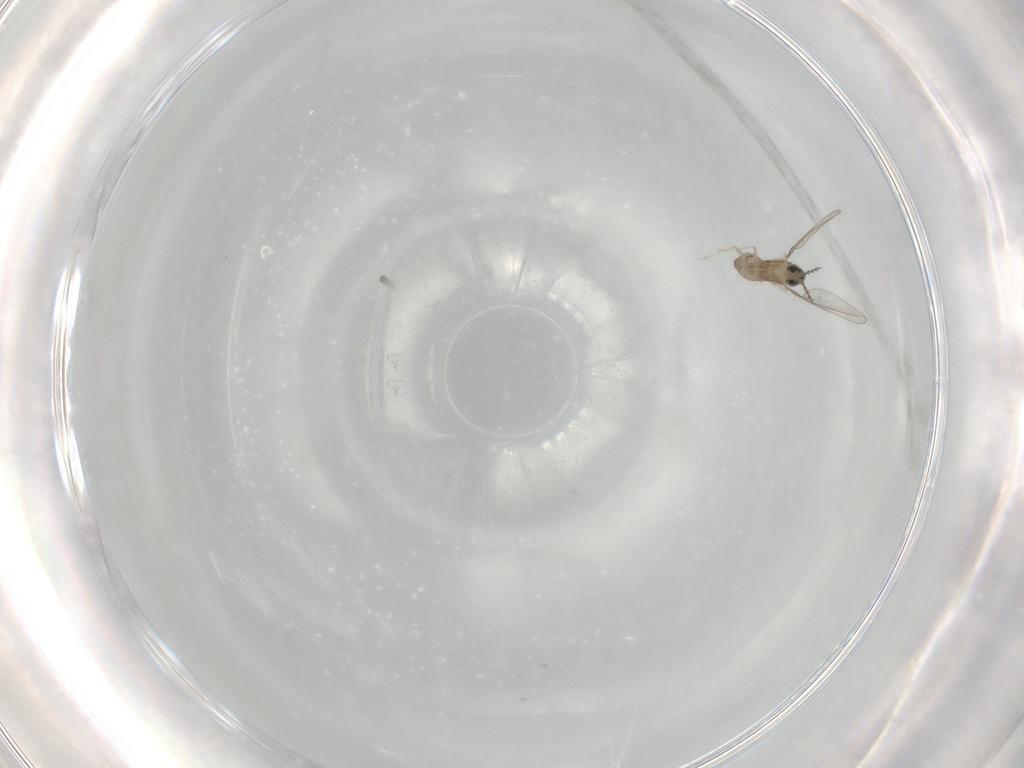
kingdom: Animalia
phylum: Arthropoda
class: Insecta
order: Diptera
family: Cecidomyiidae
